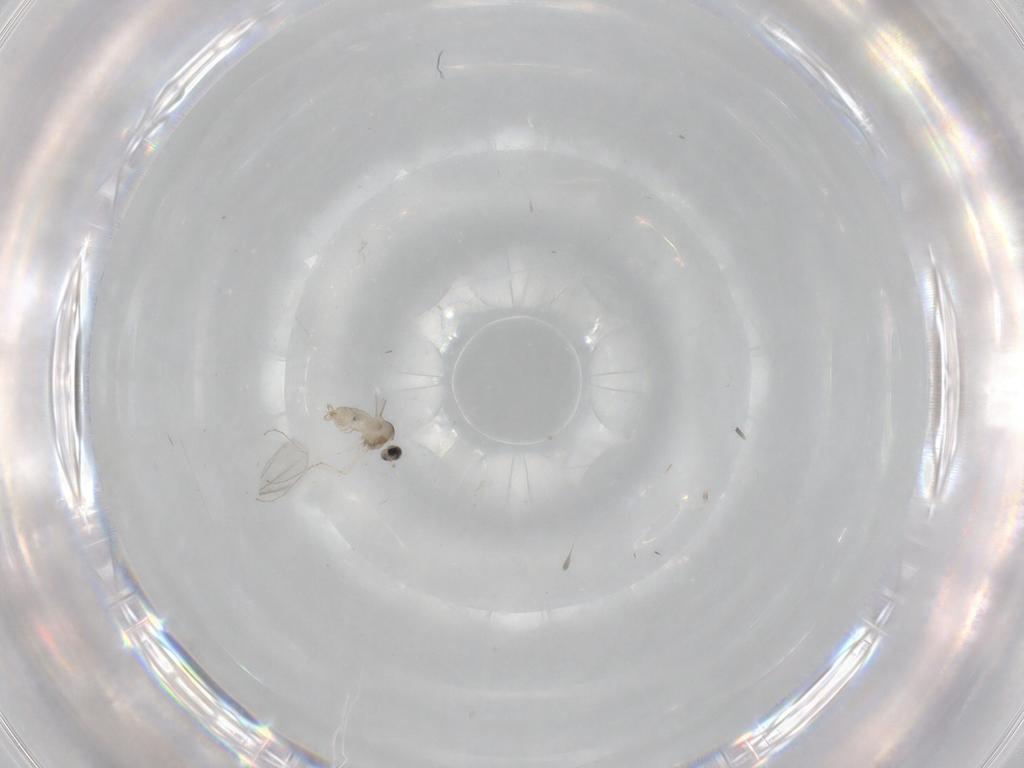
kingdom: Animalia
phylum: Arthropoda
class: Insecta
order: Diptera
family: Cecidomyiidae
